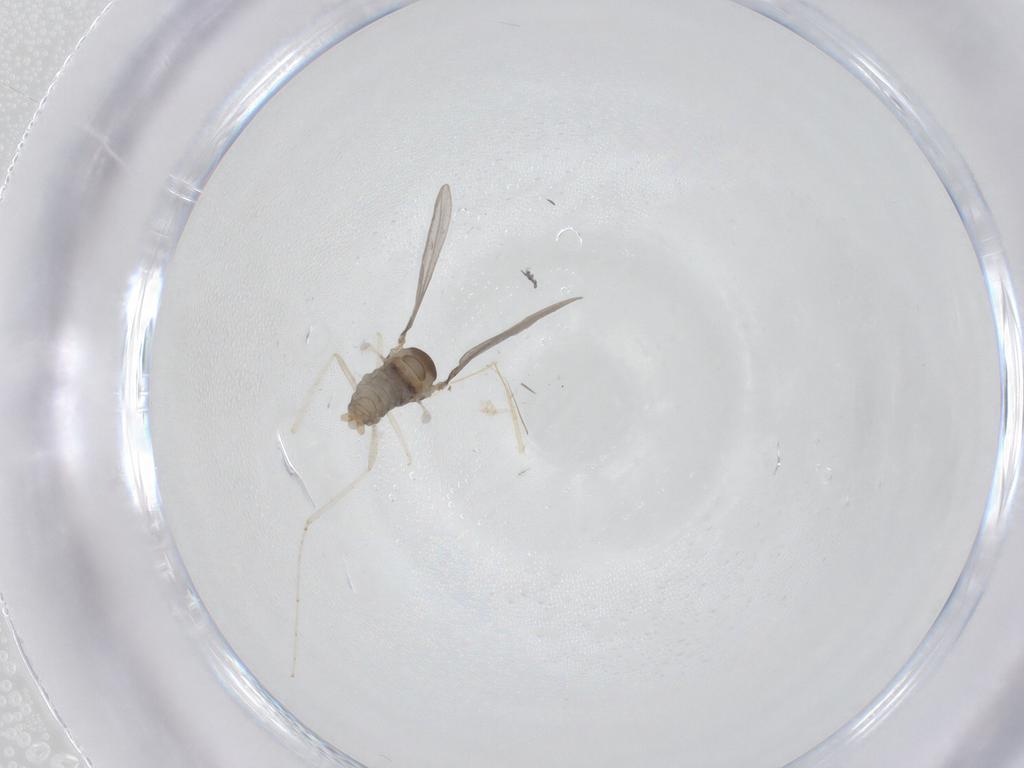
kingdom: Animalia
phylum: Arthropoda
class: Insecta
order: Diptera
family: Cecidomyiidae
